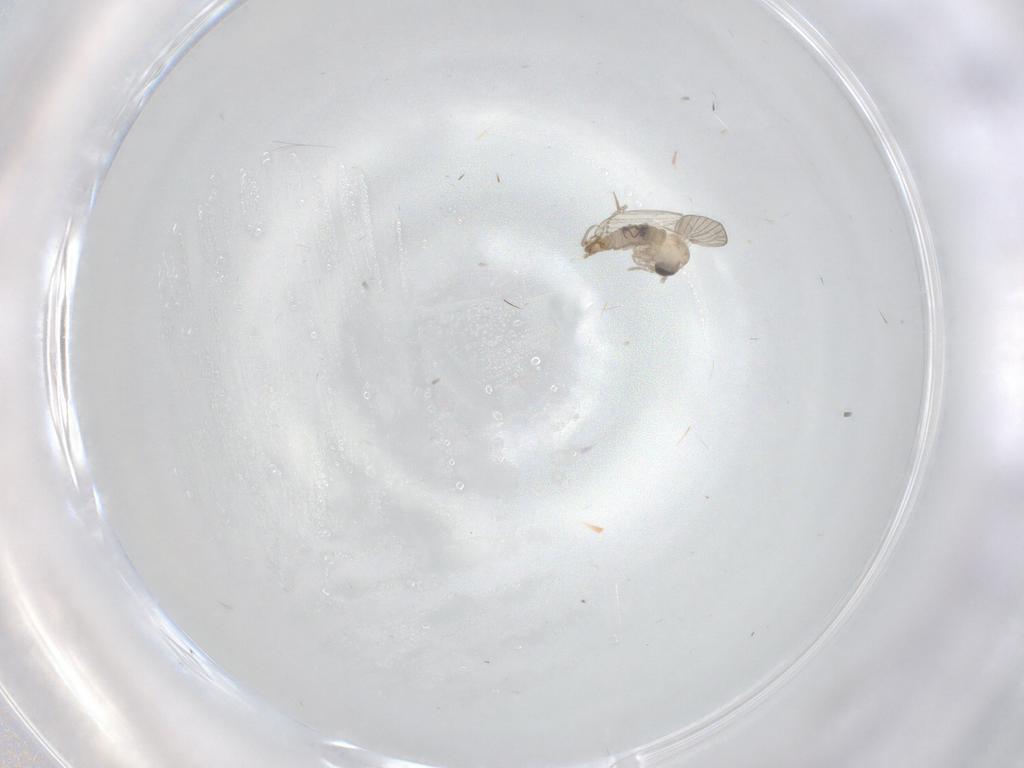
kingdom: Animalia
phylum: Arthropoda
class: Insecta
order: Diptera
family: Psychodidae
